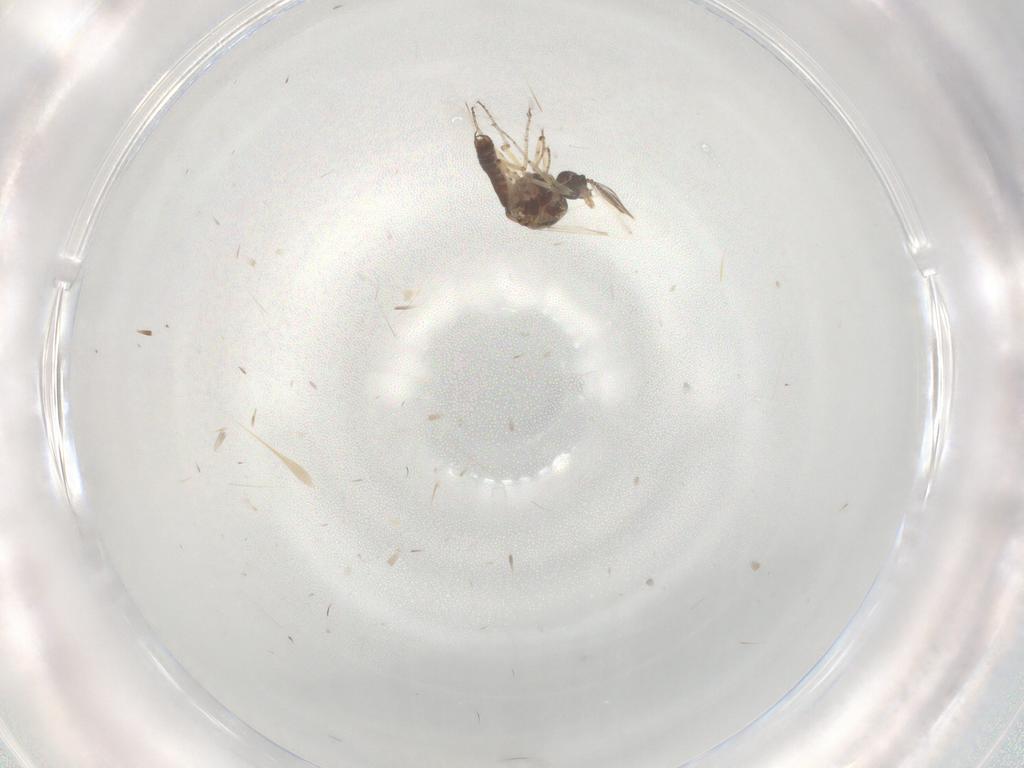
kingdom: Animalia
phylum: Arthropoda
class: Insecta
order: Diptera
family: Ceratopogonidae
